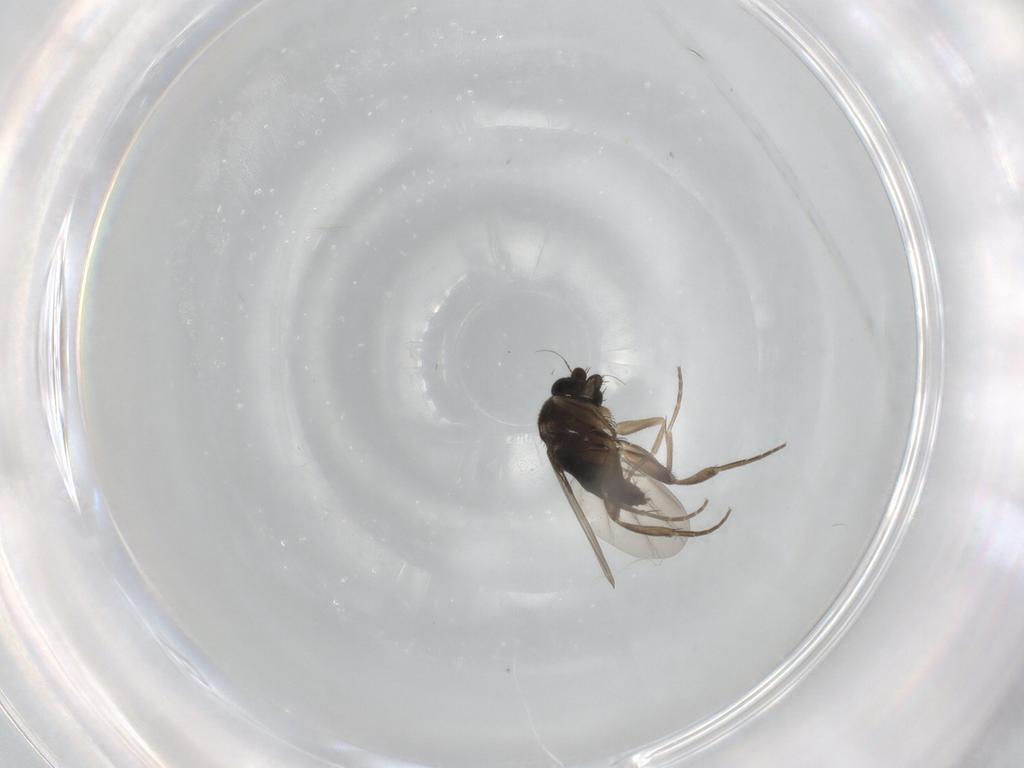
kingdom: Animalia
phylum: Arthropoda
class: Insecta
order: Diptera
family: Phoridae
